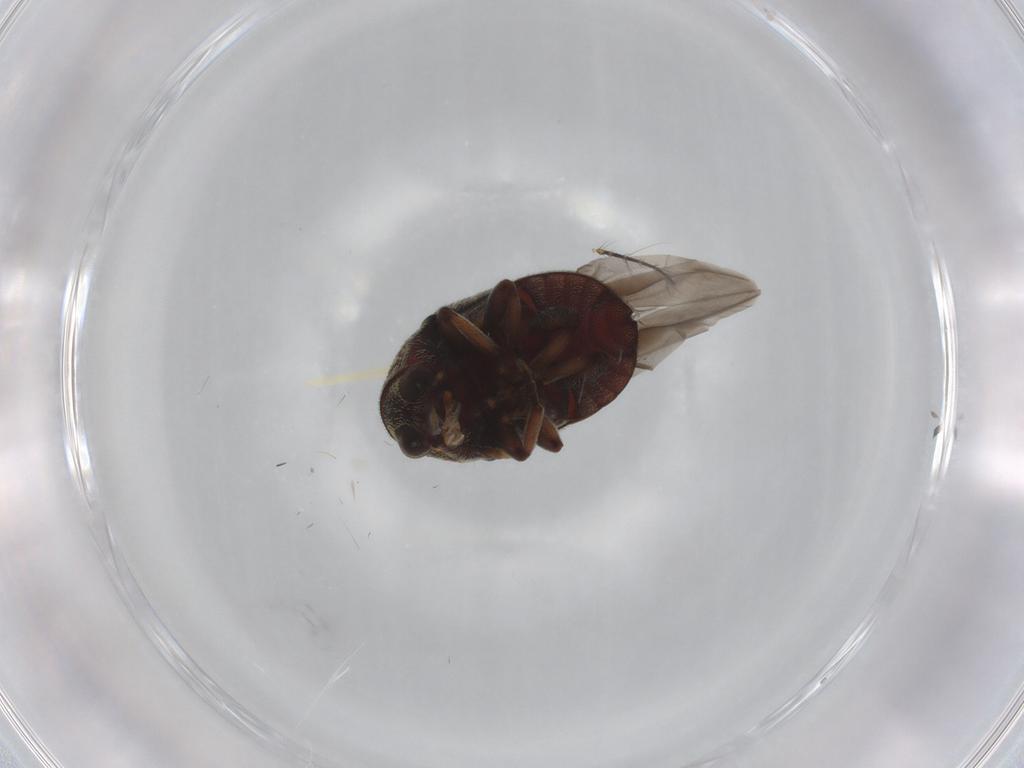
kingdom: Animalia
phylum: Arthropoda
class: Insecta
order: Coleoptera
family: Anthribidae
